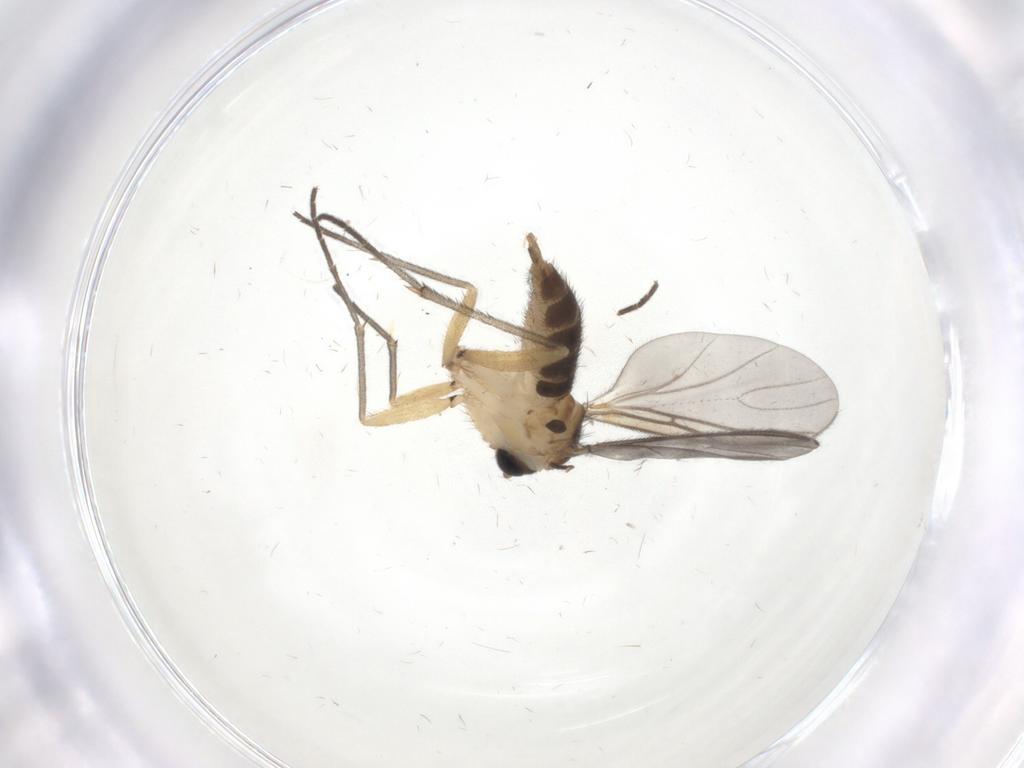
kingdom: Animalia
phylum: Arthropoda
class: Insecta
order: Diptera
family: Sciaridae
